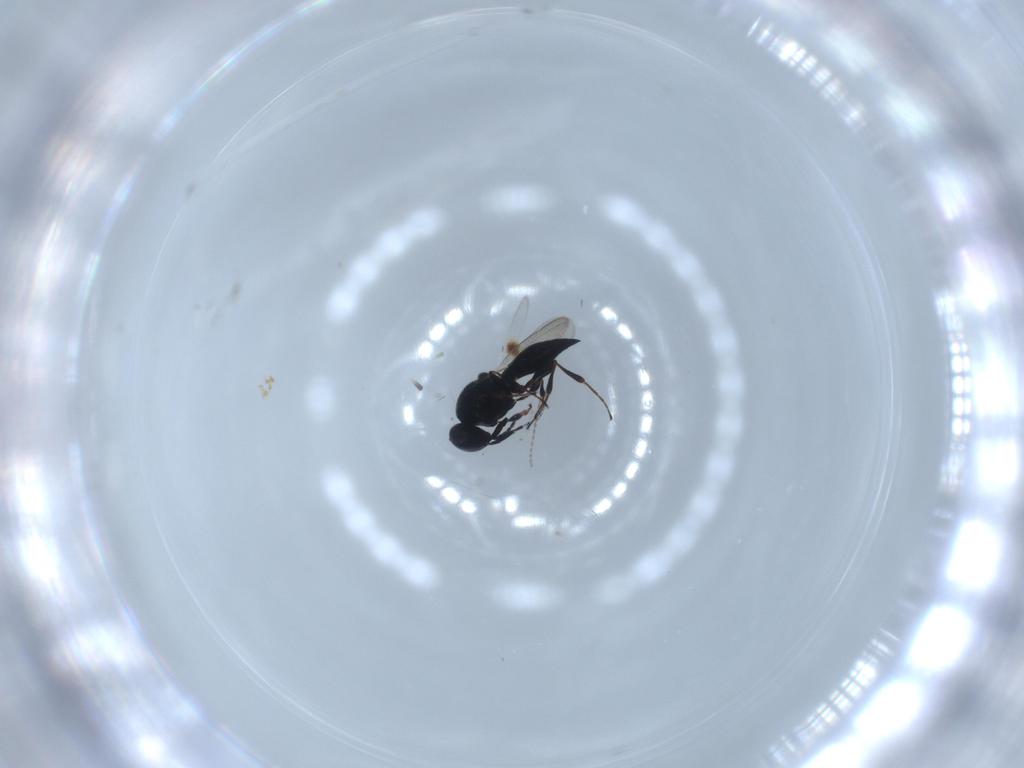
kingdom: Animalia
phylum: Arthropoda
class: Insecta
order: Diptera
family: Mythicomyiidae
